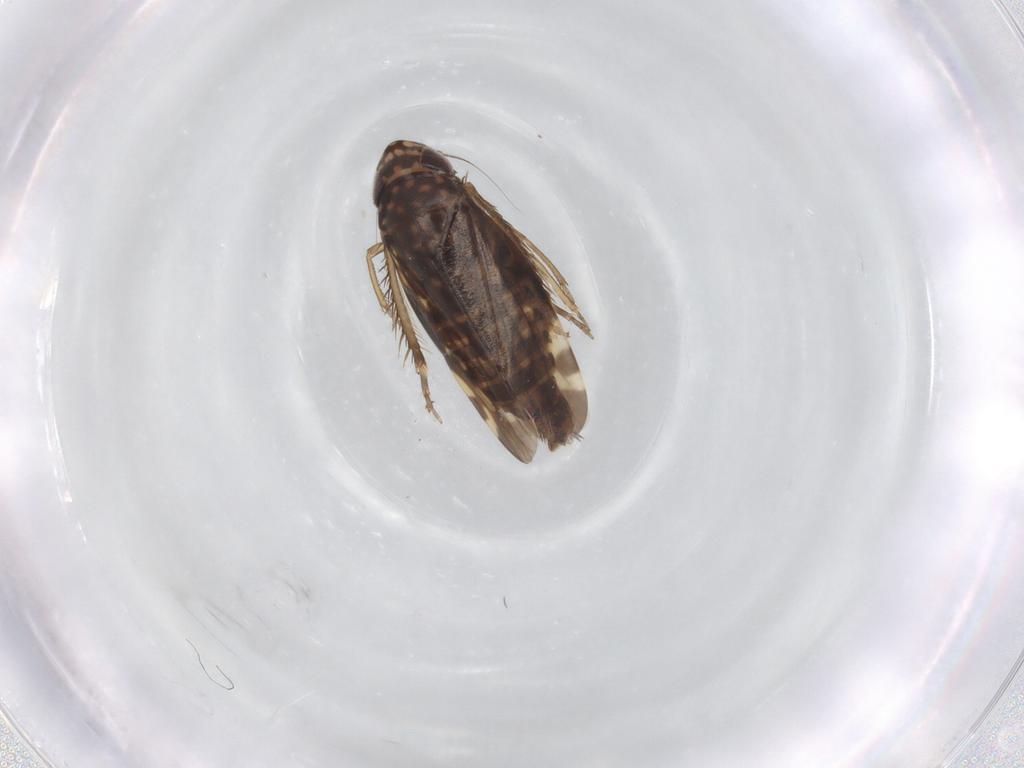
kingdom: Animalia
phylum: Arthropoda
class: Insecta
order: Hemiptera
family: Cicadellidae
